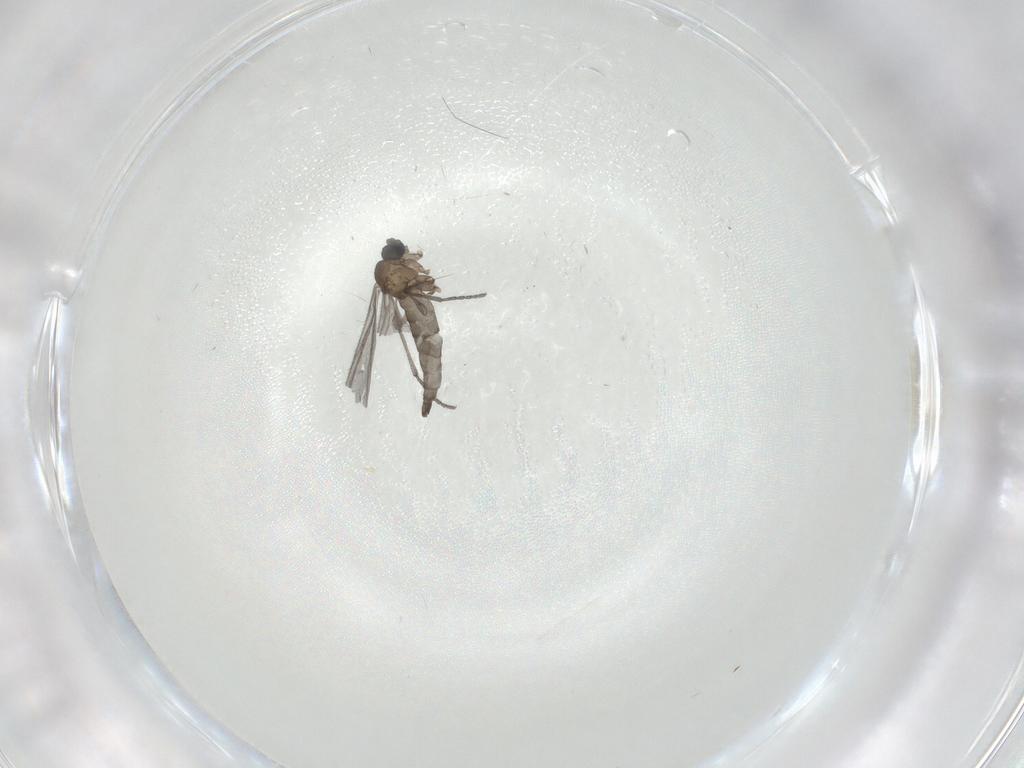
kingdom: Animalia
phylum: Arthropoda
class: Insecta
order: Diptera
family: Sciaridae
